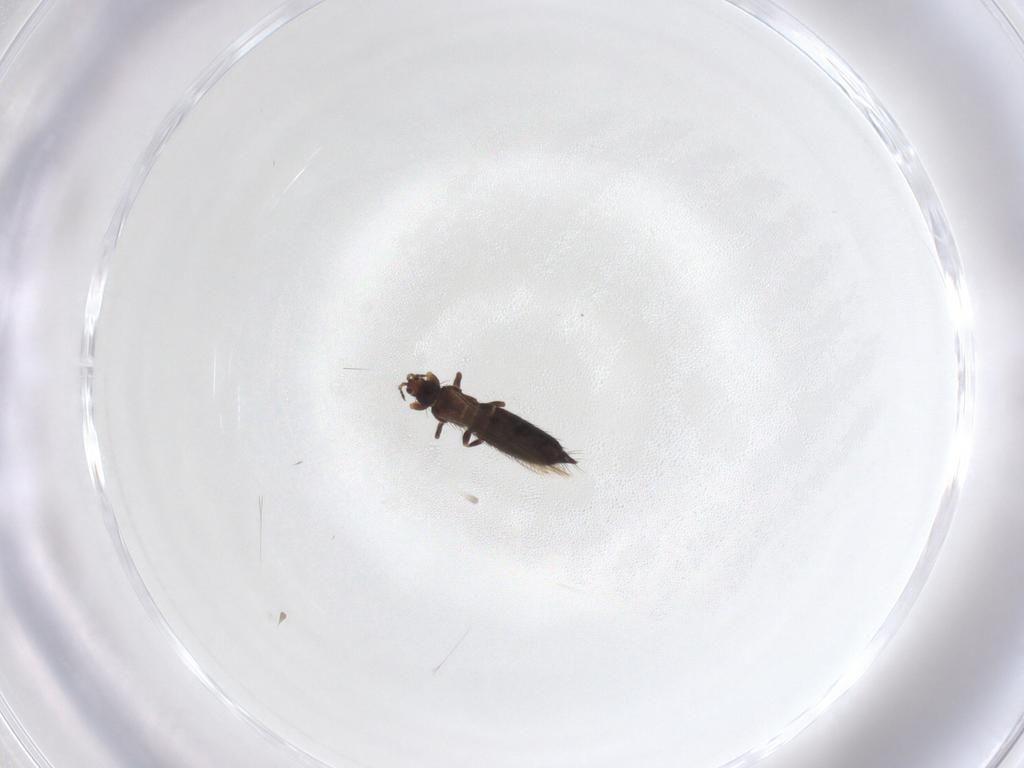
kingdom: Animalia
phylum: Arthropoda
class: Insecta
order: Thysanoptera
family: Thripidae
